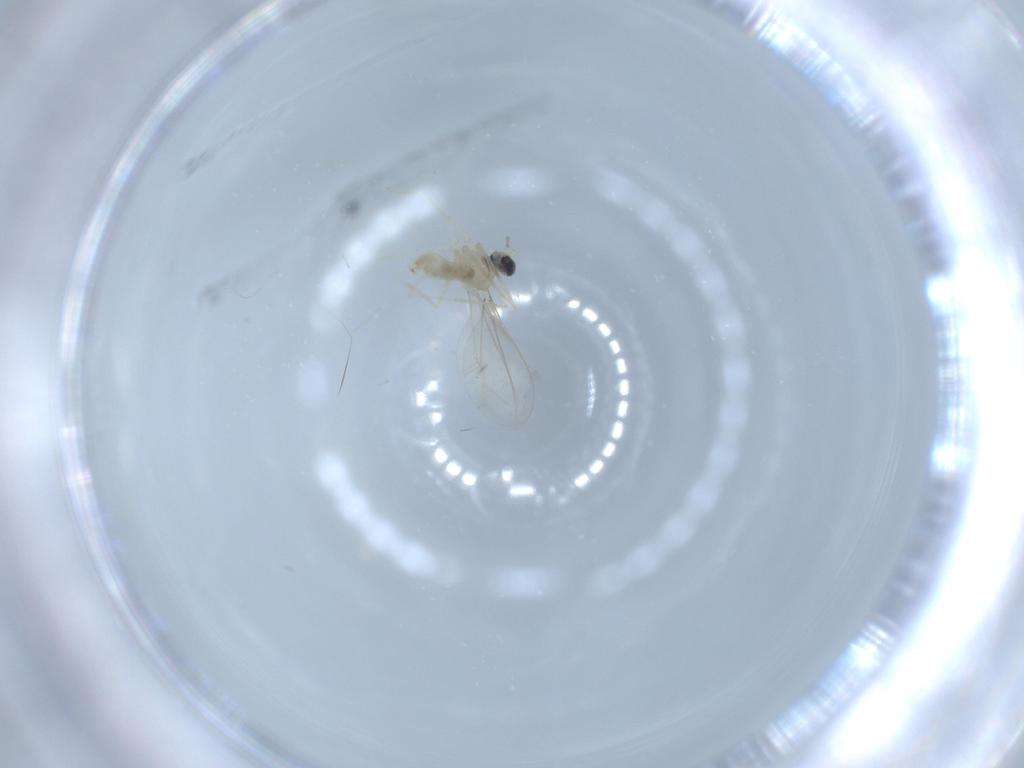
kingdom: Animalia
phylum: Arthropoda
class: Insecta
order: Diptera
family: Cecidomyiidae
